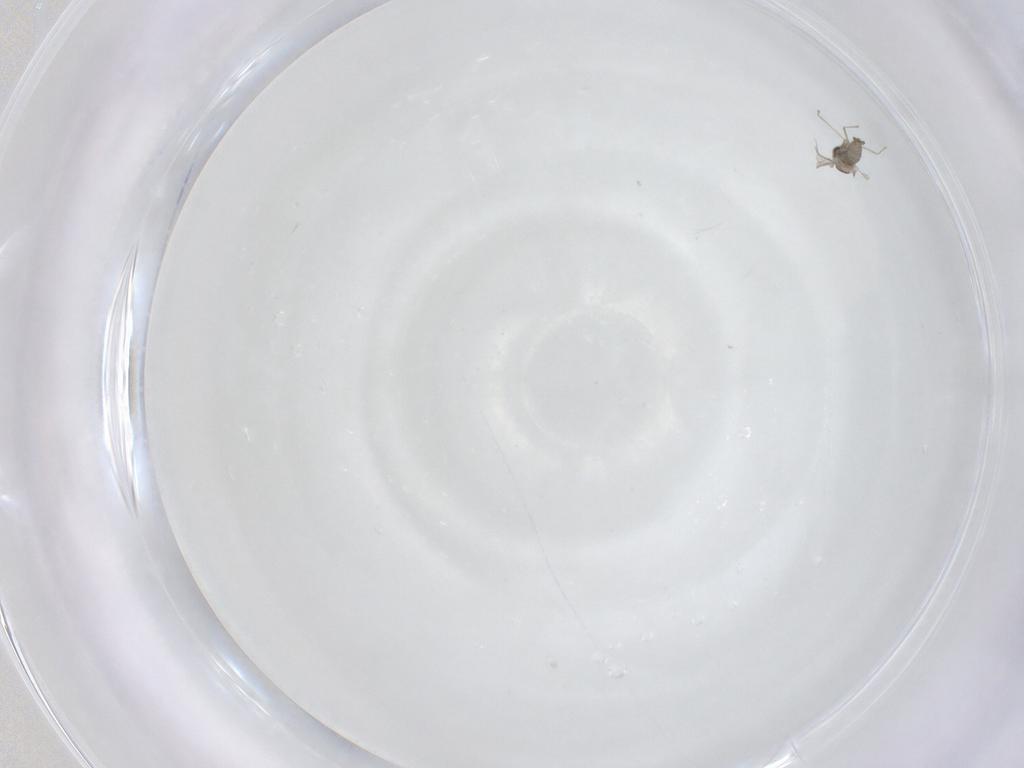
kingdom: Animalia
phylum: Arthropoda
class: Insecta
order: Diptera
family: Cecidomyiidae
